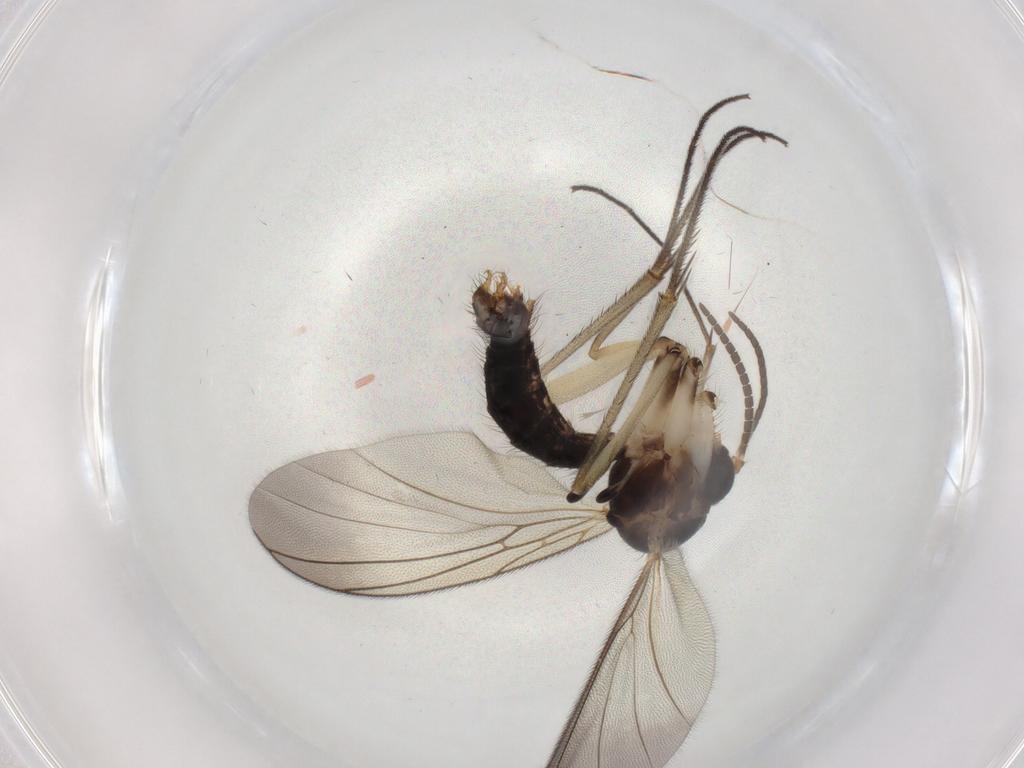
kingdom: Animalia
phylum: Arthropoda
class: Insecta
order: Diptera
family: Mycetophilidae
